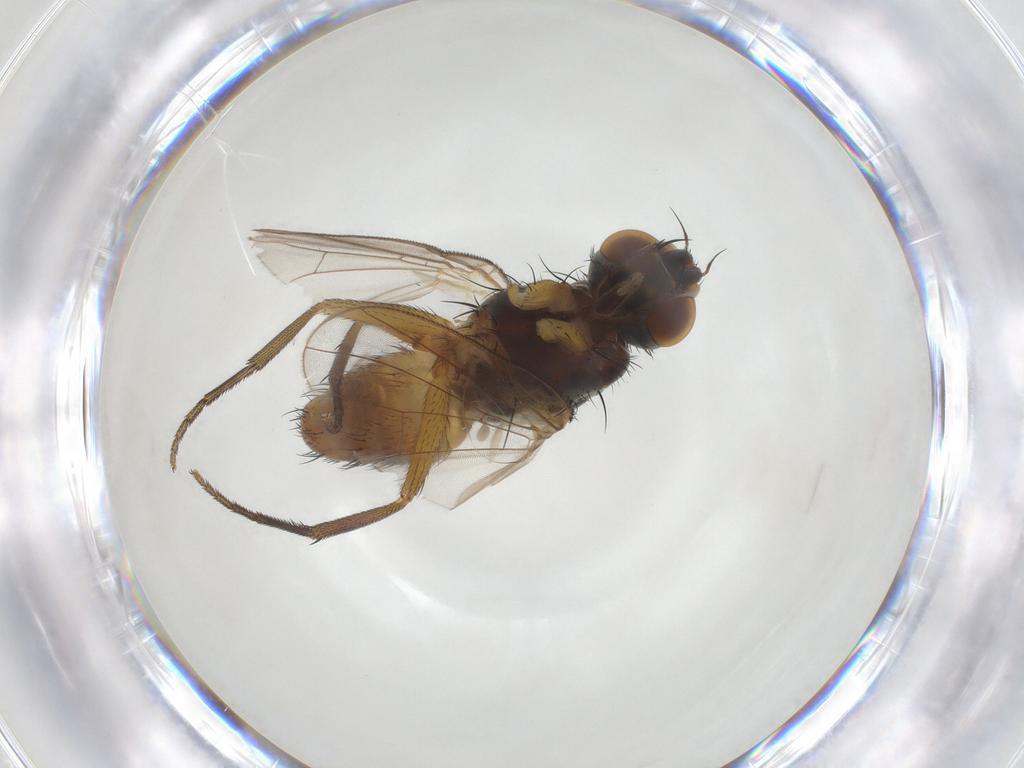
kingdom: Animalia
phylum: Arthropoda
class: Insecta
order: Diptera
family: Muscidae
